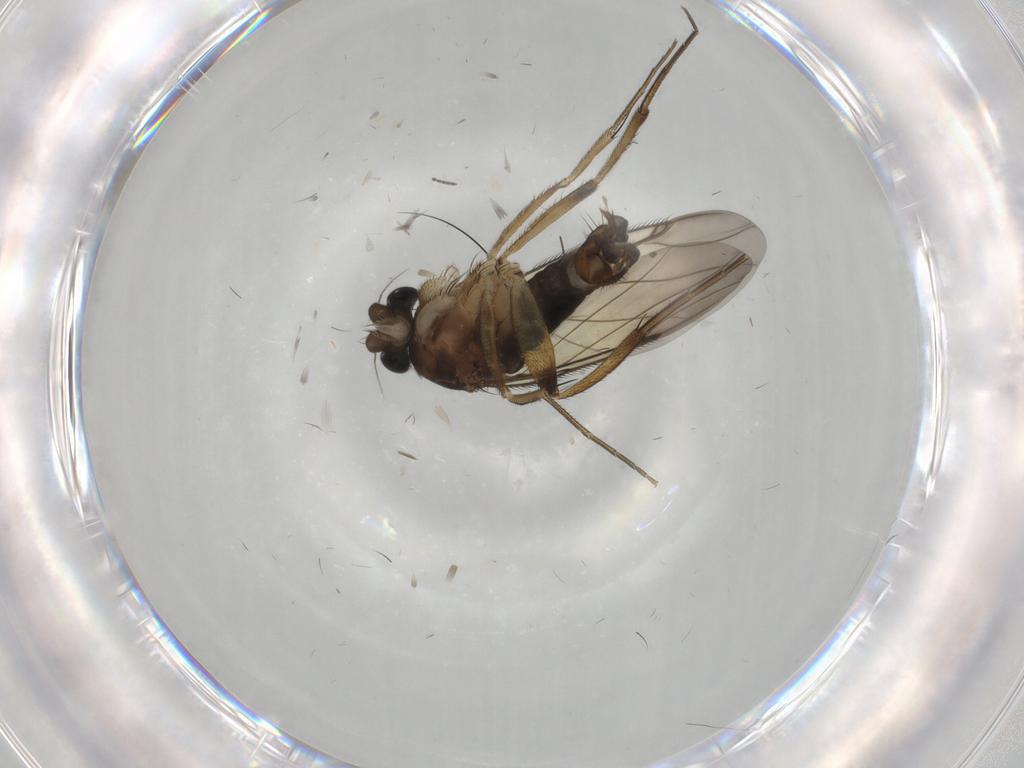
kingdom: Animalia
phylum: Arthropoda
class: Insecta
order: Diptera
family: Phoridae
